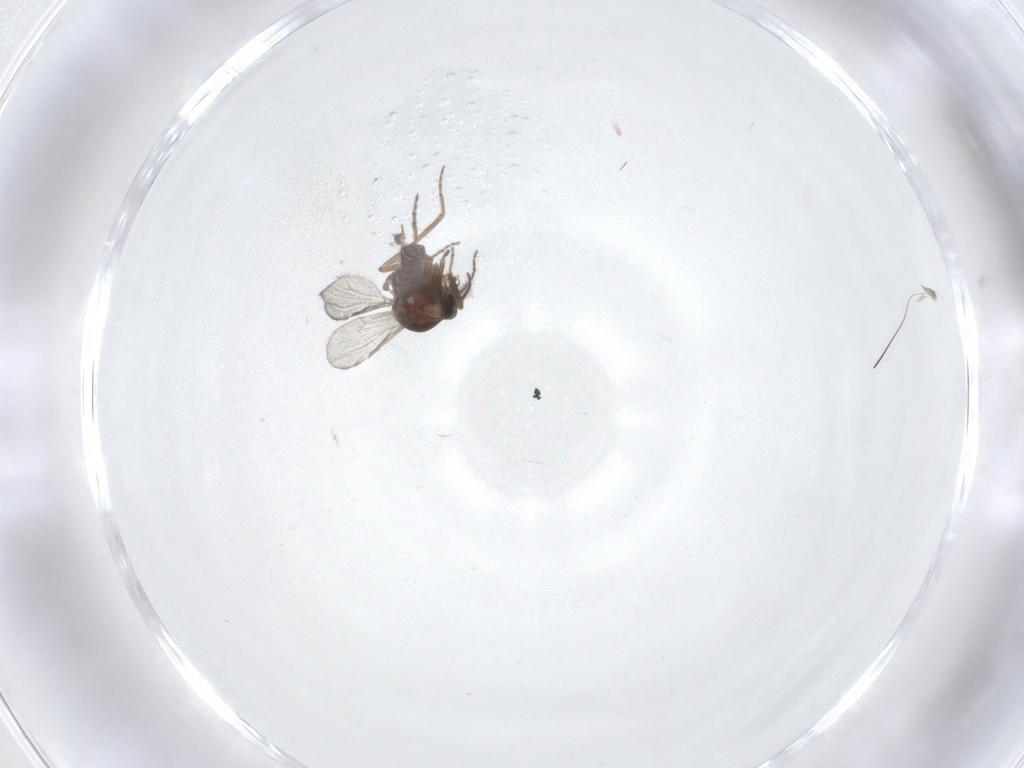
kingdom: Animalia
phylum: Arthropoda
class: Insecta
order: Diptera
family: Phoridae
